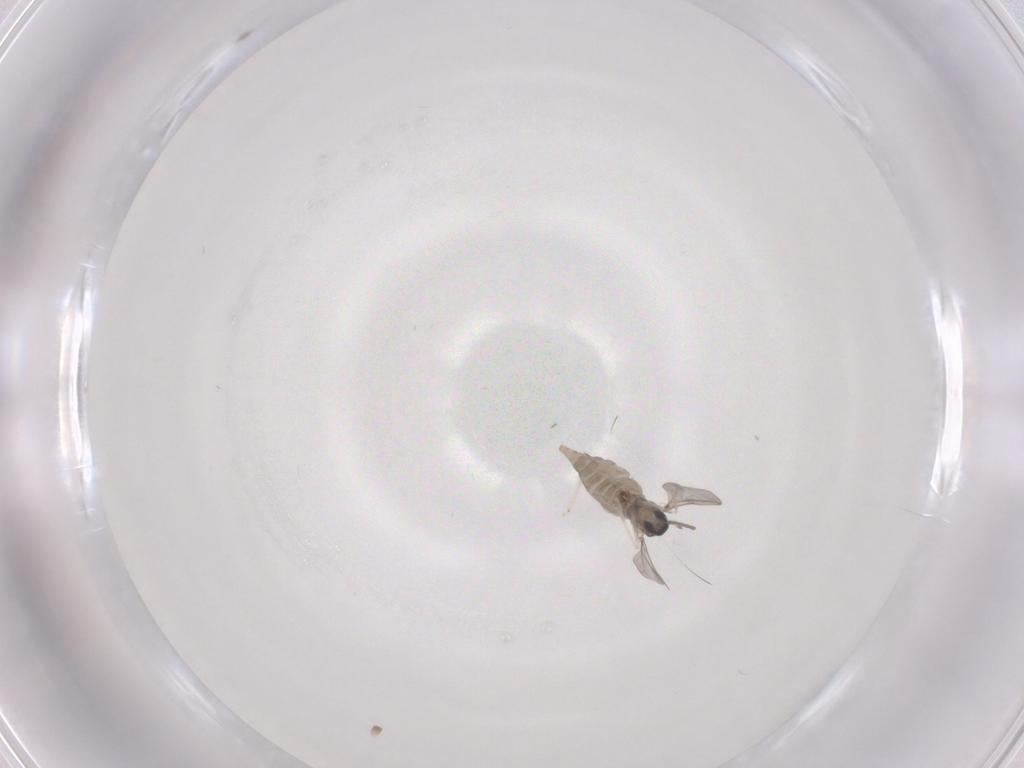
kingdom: Animalia
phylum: Arthropoda
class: Insecta
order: Diptera
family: Cecidomyiidae
